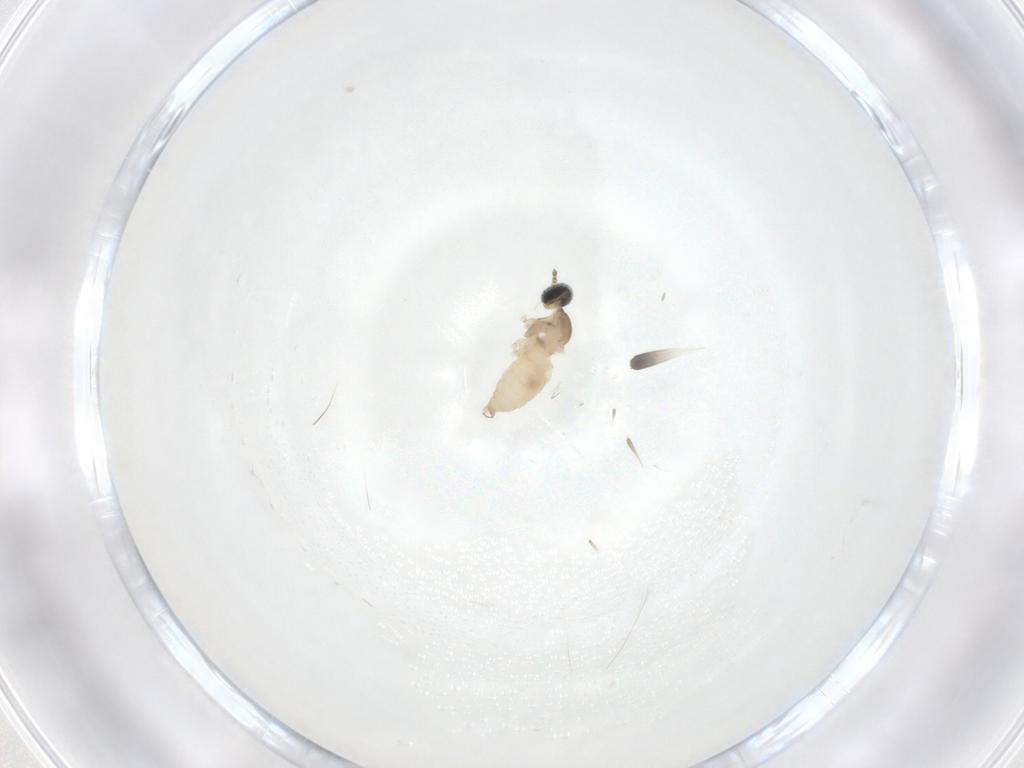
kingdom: Animalia
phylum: Arthropoda
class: Insecta
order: Diptera
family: Cecidomyiidae
